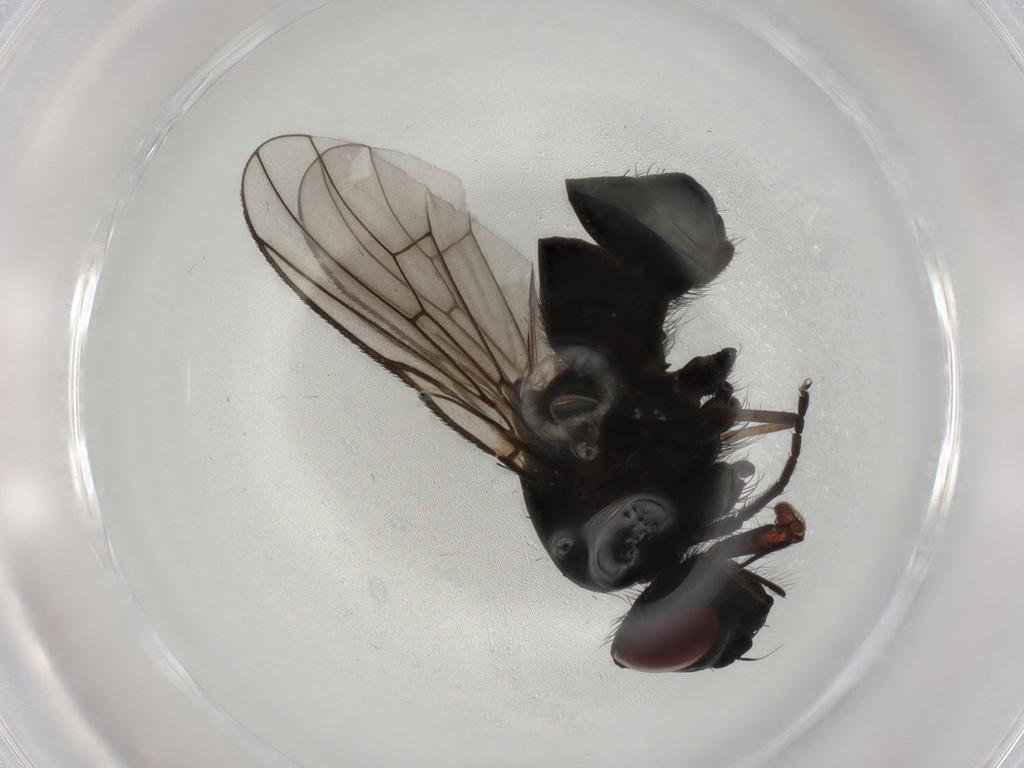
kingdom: Animalia
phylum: Arthropoda
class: Insecta
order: Diptera
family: Muscidae
